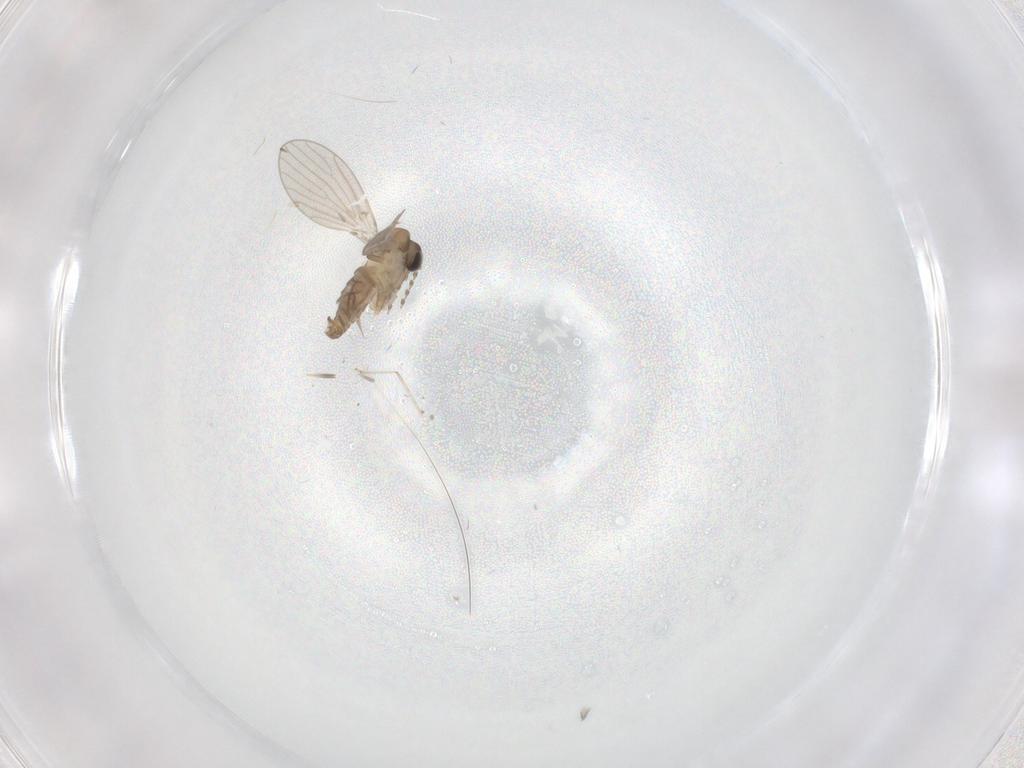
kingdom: Animalia
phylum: Arthropoda
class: Insecta
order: Diptera
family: Psychodidae
